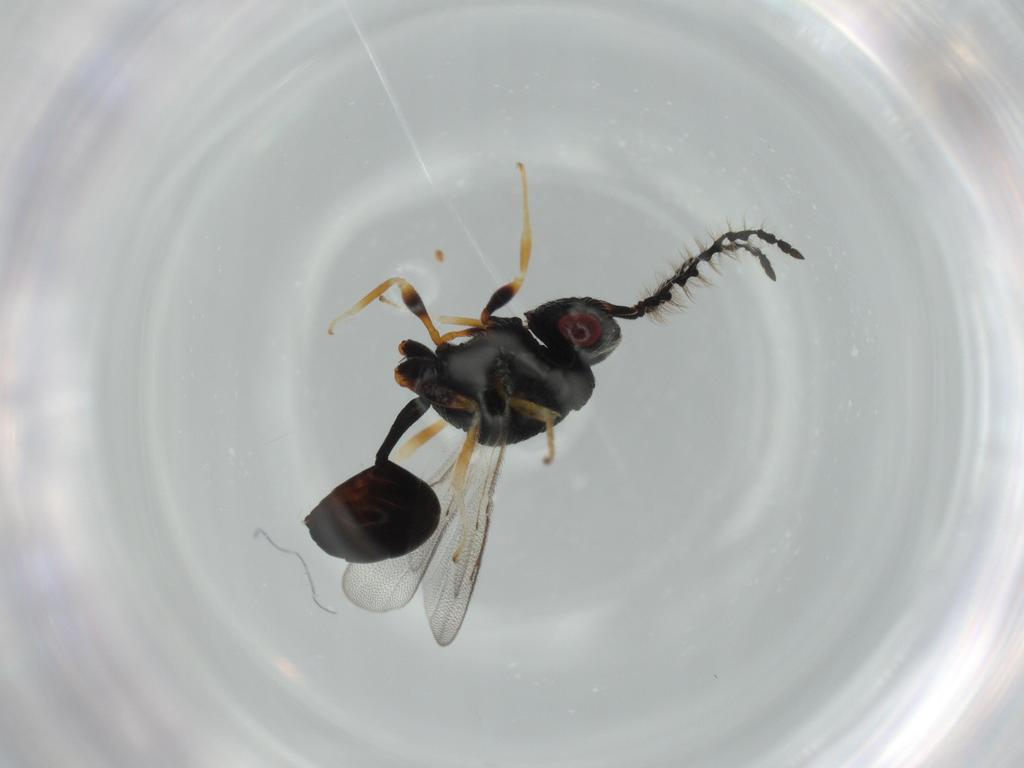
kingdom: Animalia
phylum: Arthropoda
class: Insecta
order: Hymenoptera
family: Eurytomidae
